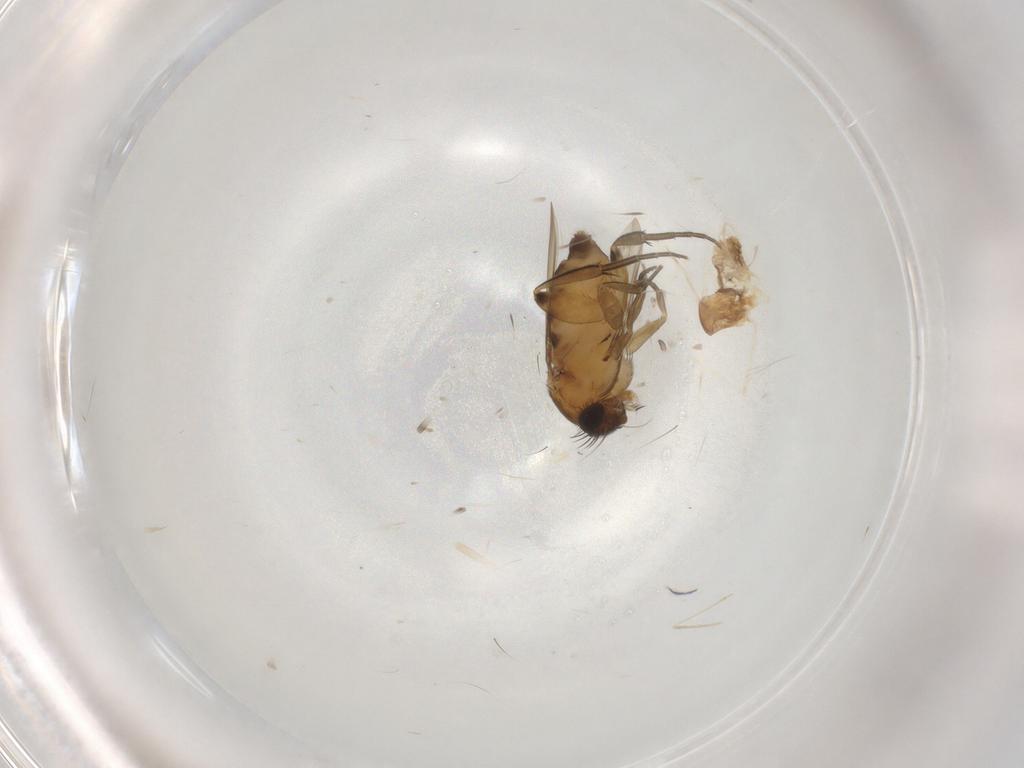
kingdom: Animalia
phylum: Arthropoda
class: Insecta
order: Diptera
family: Phoridae
